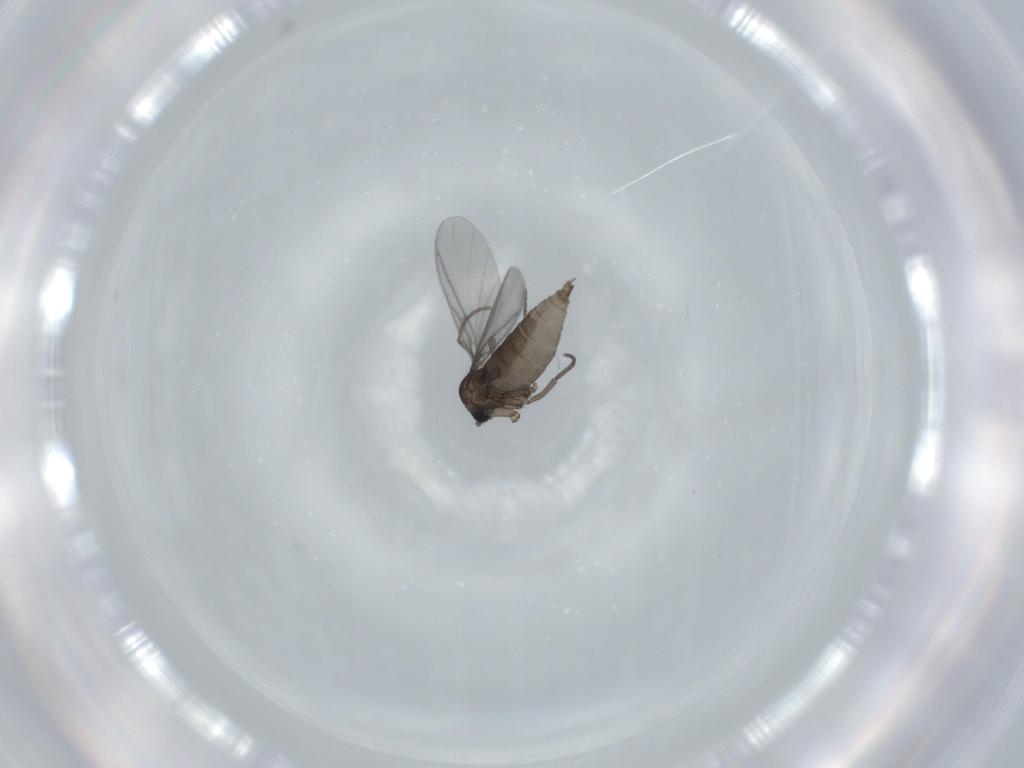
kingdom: Animalia
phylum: Arthropoda
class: Insecta
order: Diptera
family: Sciaridae
